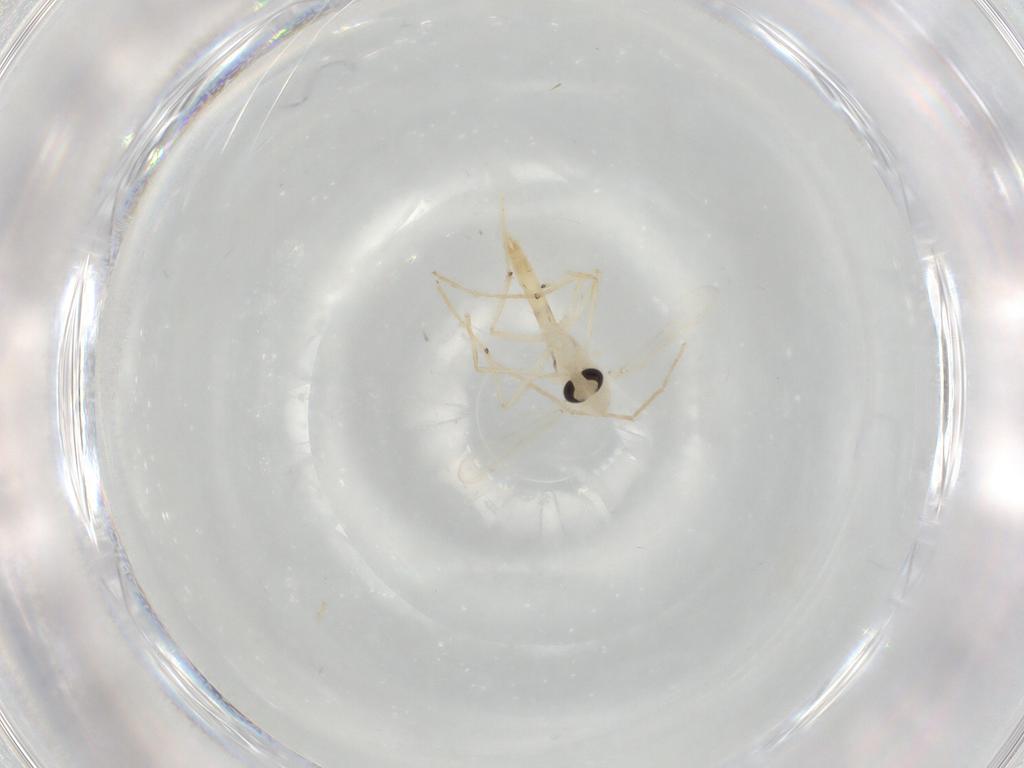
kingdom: Animalia
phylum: Arthropoda
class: Insecta
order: Diptera
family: Chironomidae
